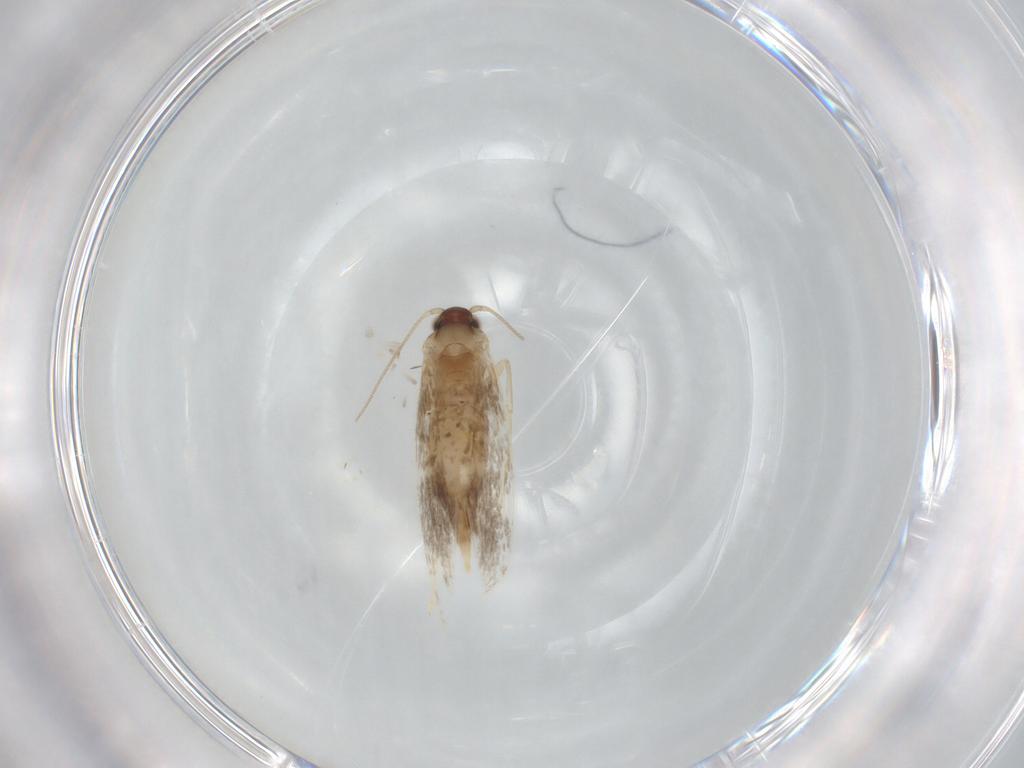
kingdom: Animalia
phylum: Arthropoda
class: Insecta
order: Lepidoptera
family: Tineidae
